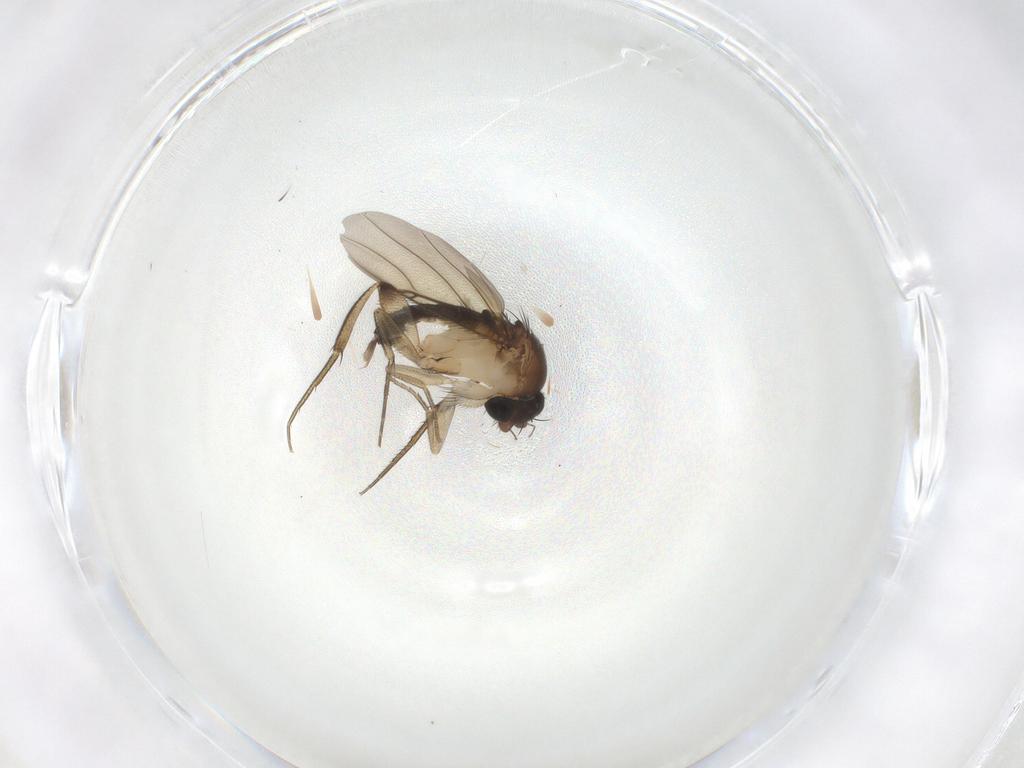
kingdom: Animalia
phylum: Arthropoda
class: Insecta
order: Diptera
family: Phoridae
